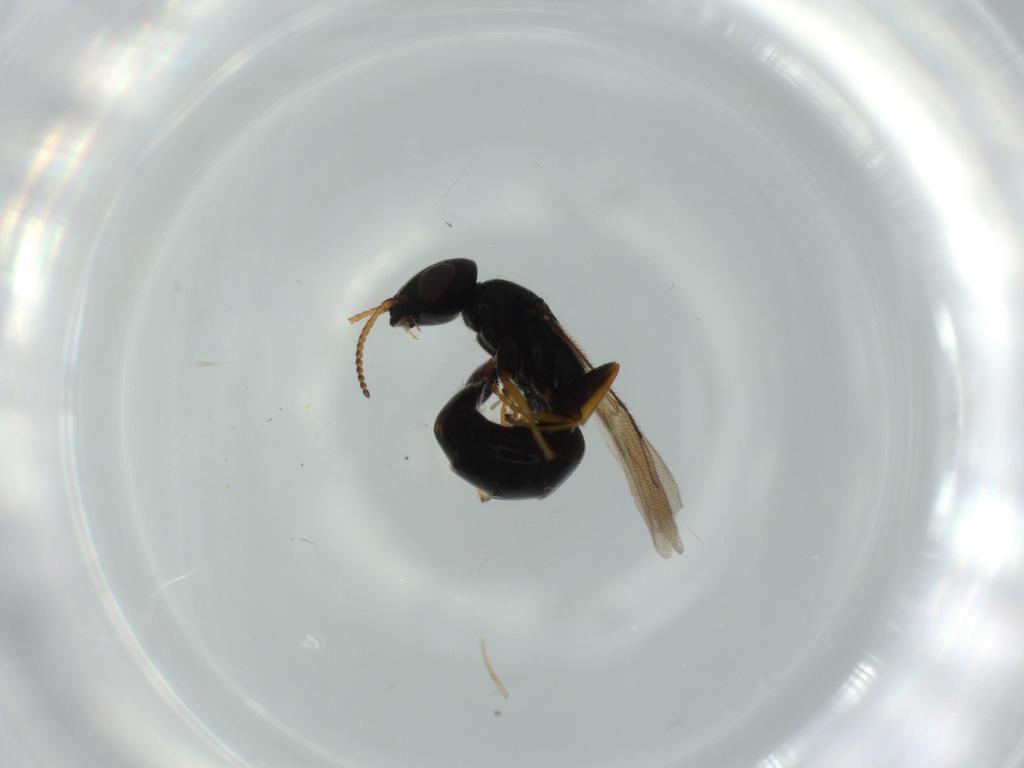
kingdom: Animalia
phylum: Arthropoda
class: Insecta
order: Hymenoptera
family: Bethylidae
